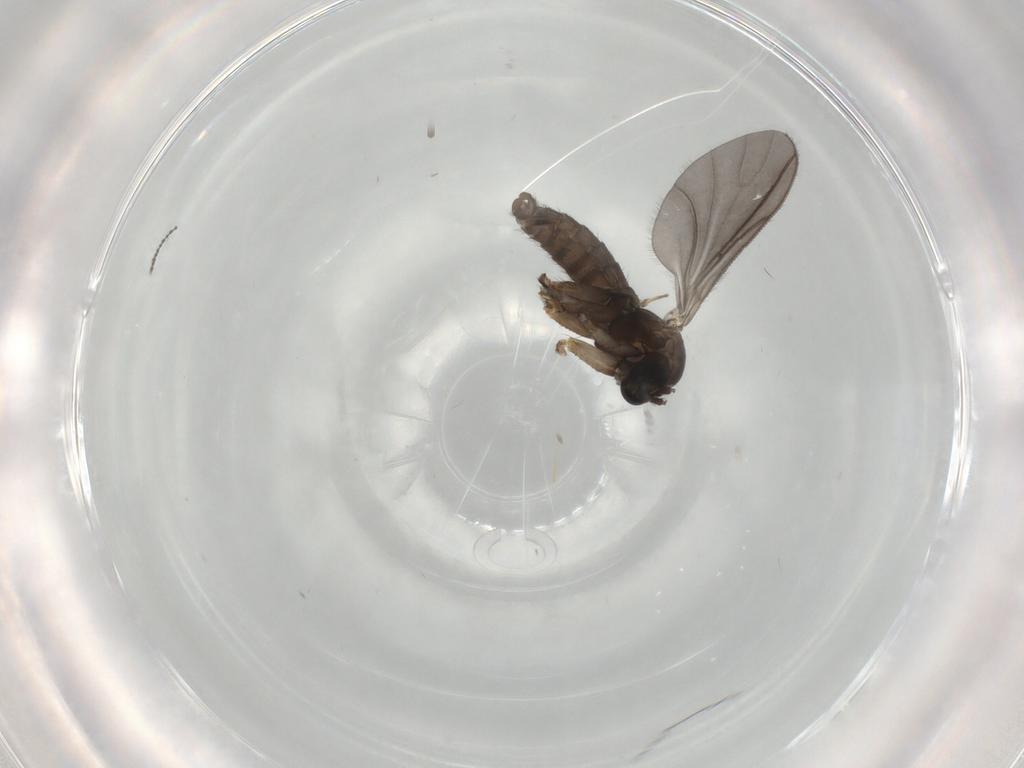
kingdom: Animalia
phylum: Arthropoda
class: Insecta
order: Diptera
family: Sciaridae
